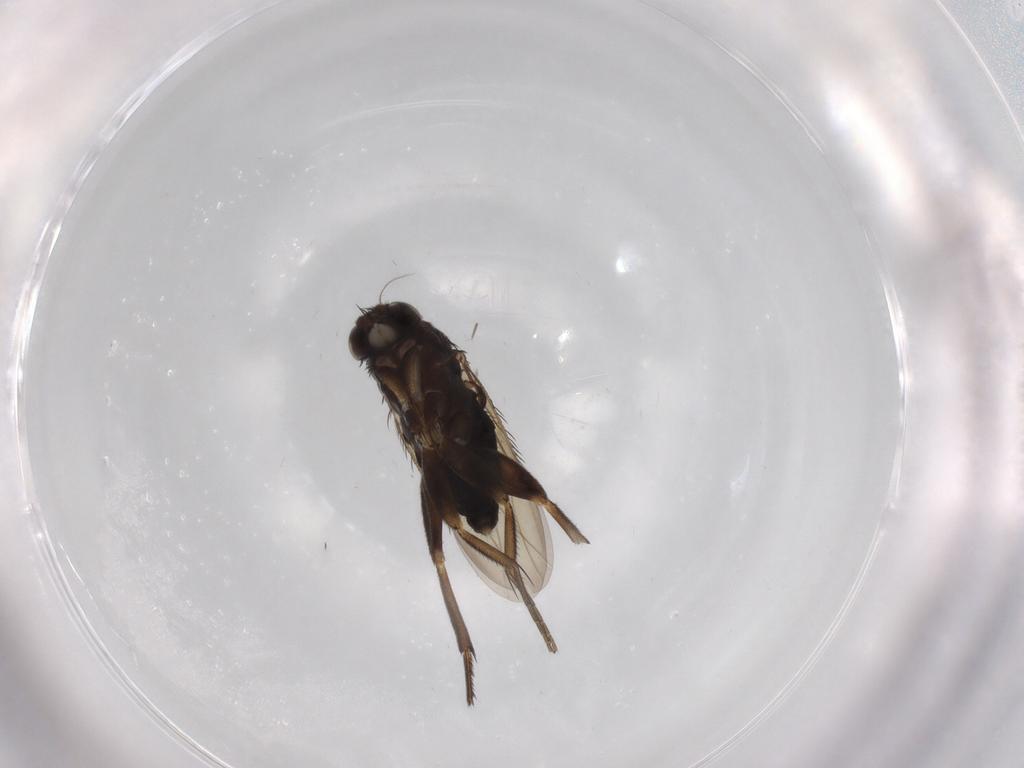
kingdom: Animalia
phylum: Arthropoda
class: Insecta
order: Diptera
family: Phoridae
